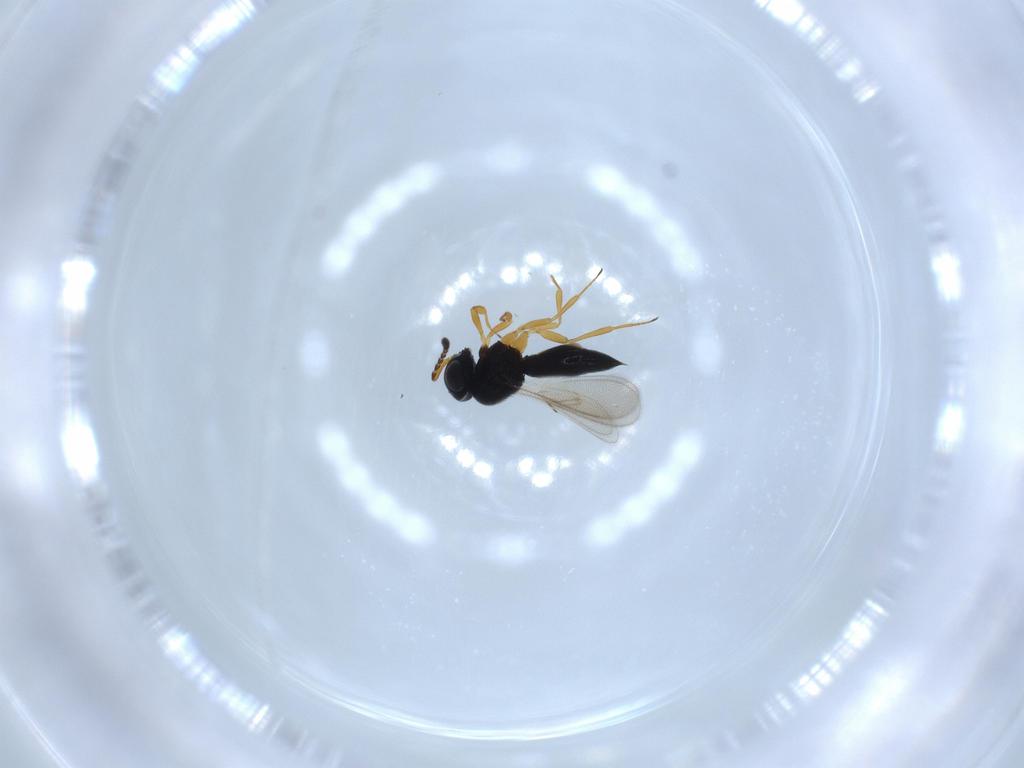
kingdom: Animalia
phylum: Arthropoda
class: Insecta
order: Hymenoptera
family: Scelionidae
